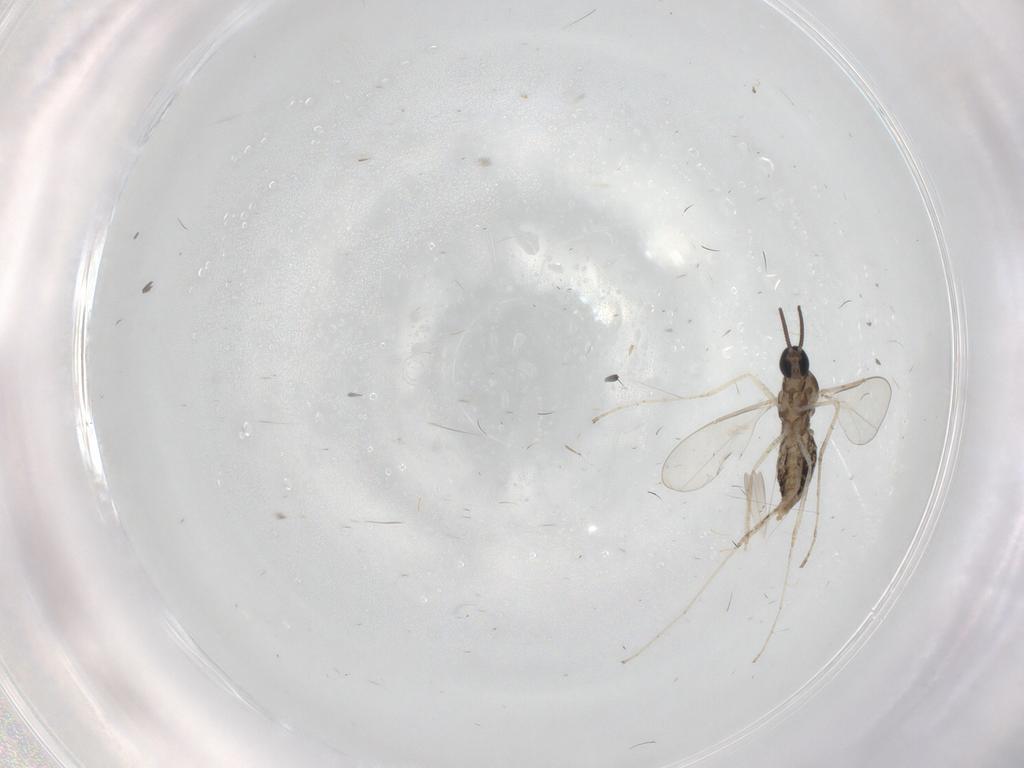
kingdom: Animalia
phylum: Arthropoda
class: Insecta
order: Diptera
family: Cecidomyiidae
